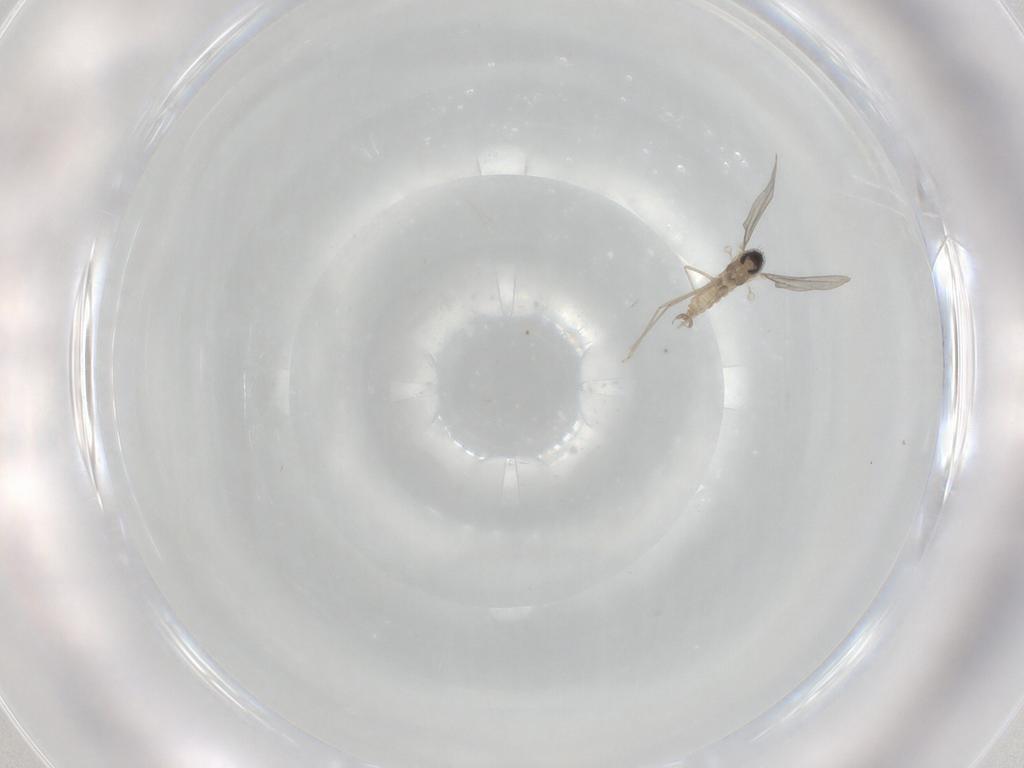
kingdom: Animalia
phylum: Arthropoda
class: Insecta
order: Diptera
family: Cecidomyiidae
